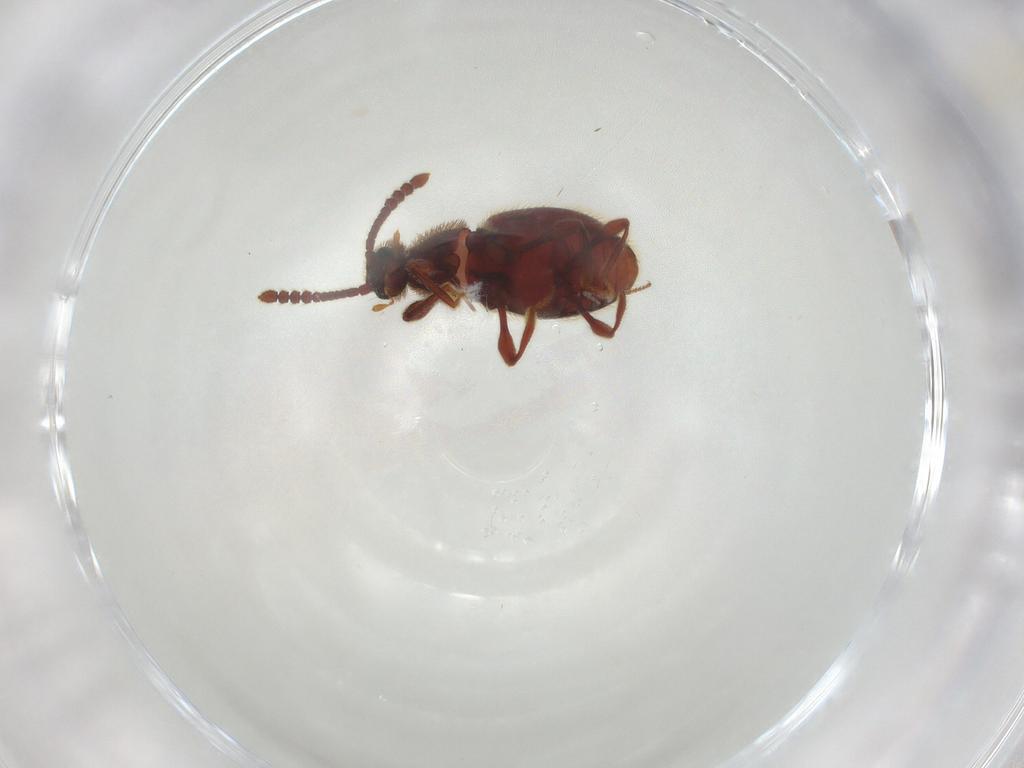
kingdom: Animalia
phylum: Arthropoda
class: Insecta
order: Coleoptera
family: Staphylinidae
